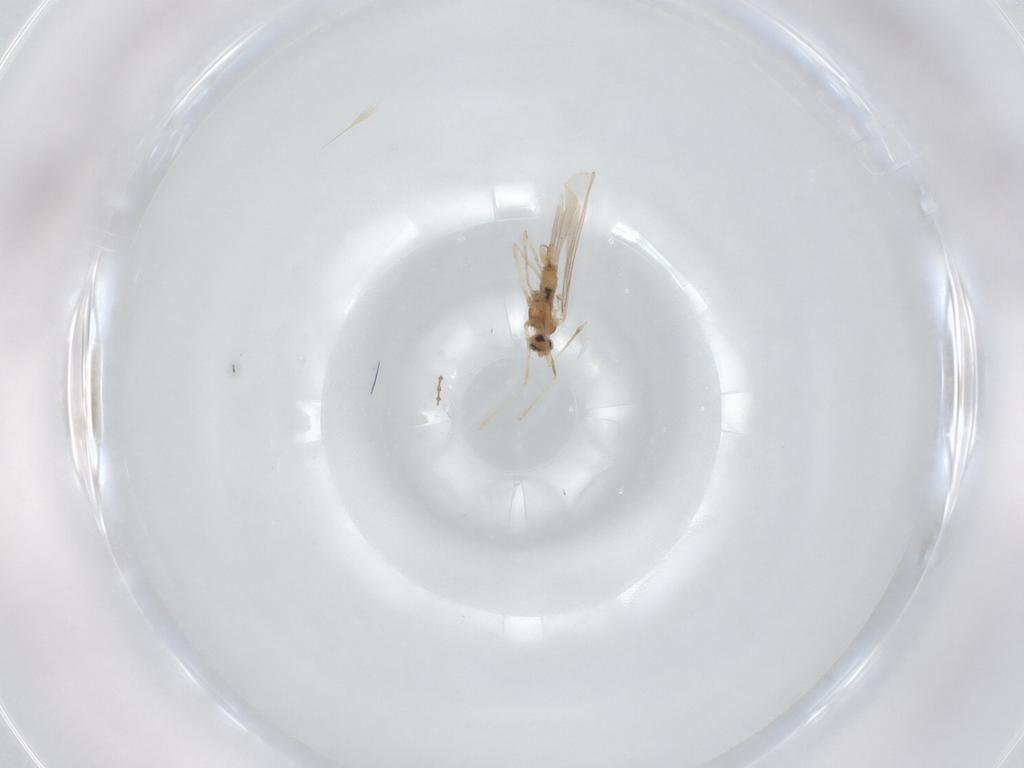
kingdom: Animalia
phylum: Arthropoda
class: Insecta
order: Diptera
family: Cecidomyiidae
